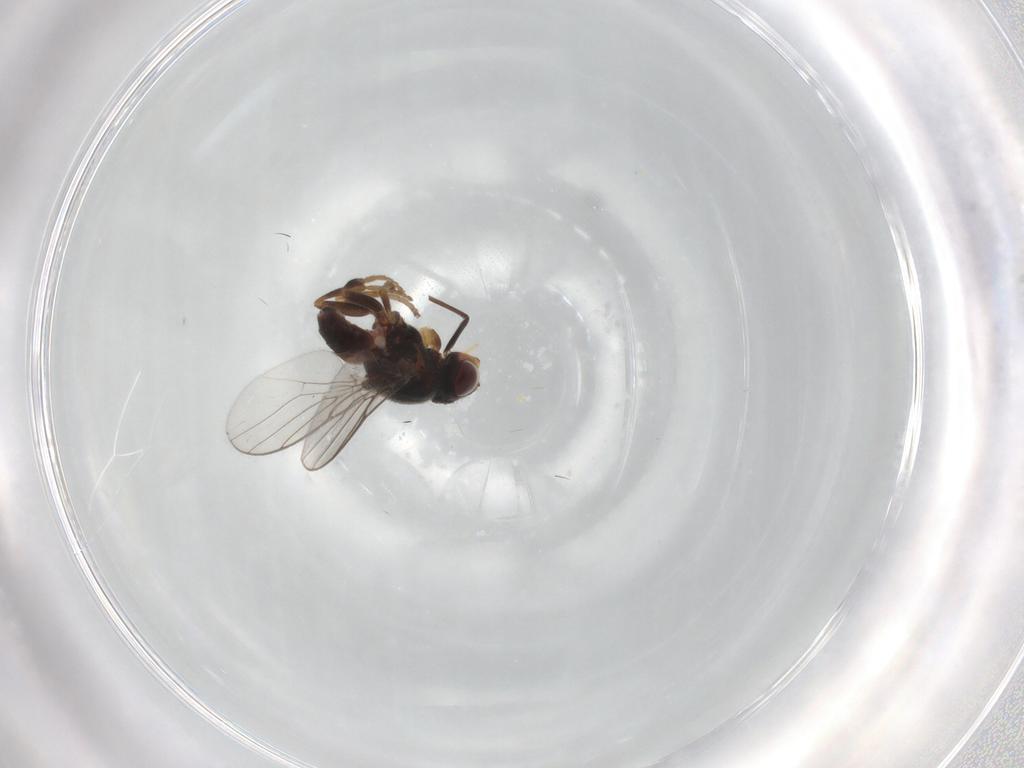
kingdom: Animalia
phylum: Arthropoda
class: Insecta
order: Diptera
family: Chloropidae
